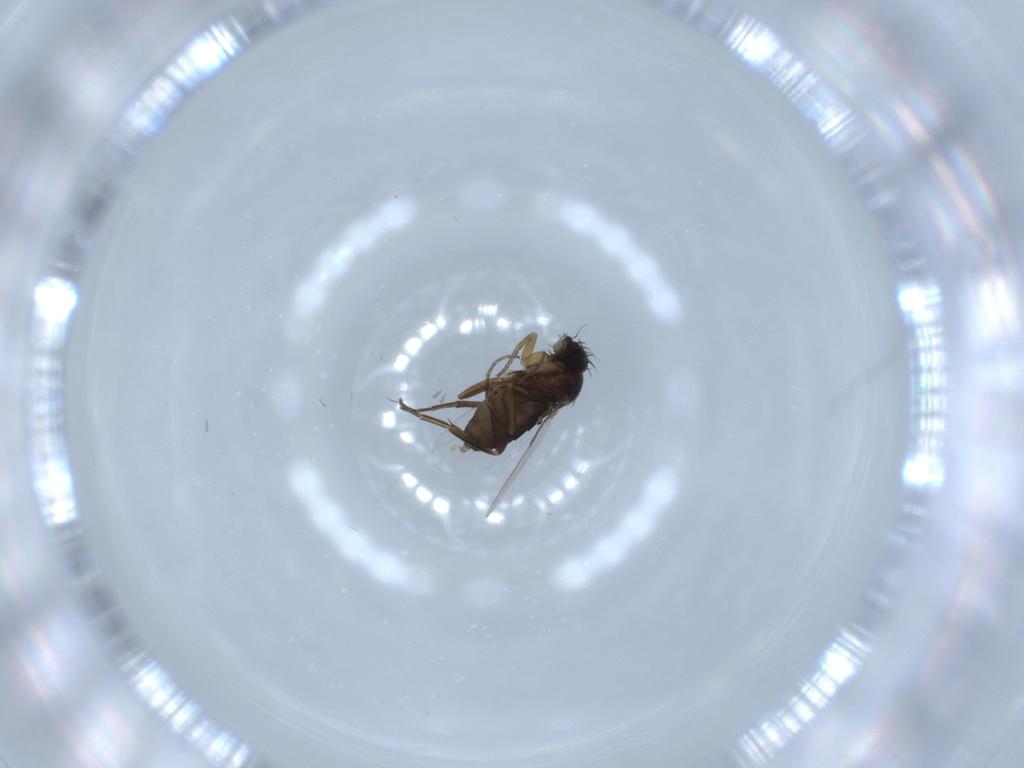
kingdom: Animalia
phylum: Arthropoda
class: Insecta
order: Diptera
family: Phoridae
